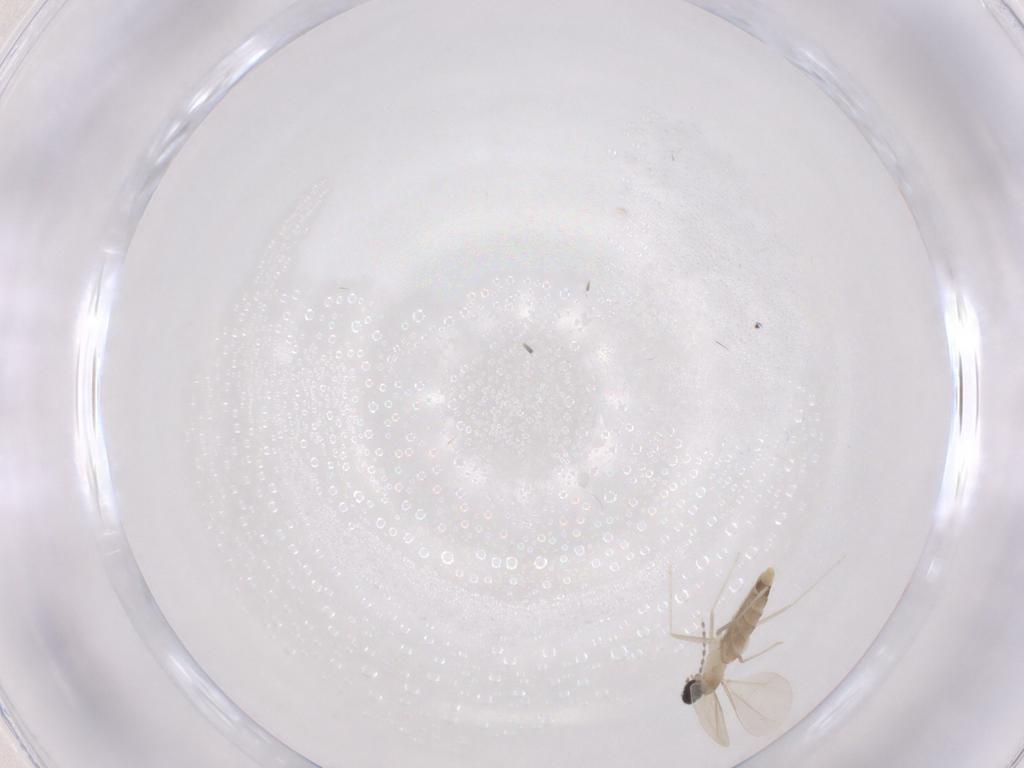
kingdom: Animalia
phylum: Arthropoda
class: Insecta
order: Diptera
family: Cecidomyiidae
